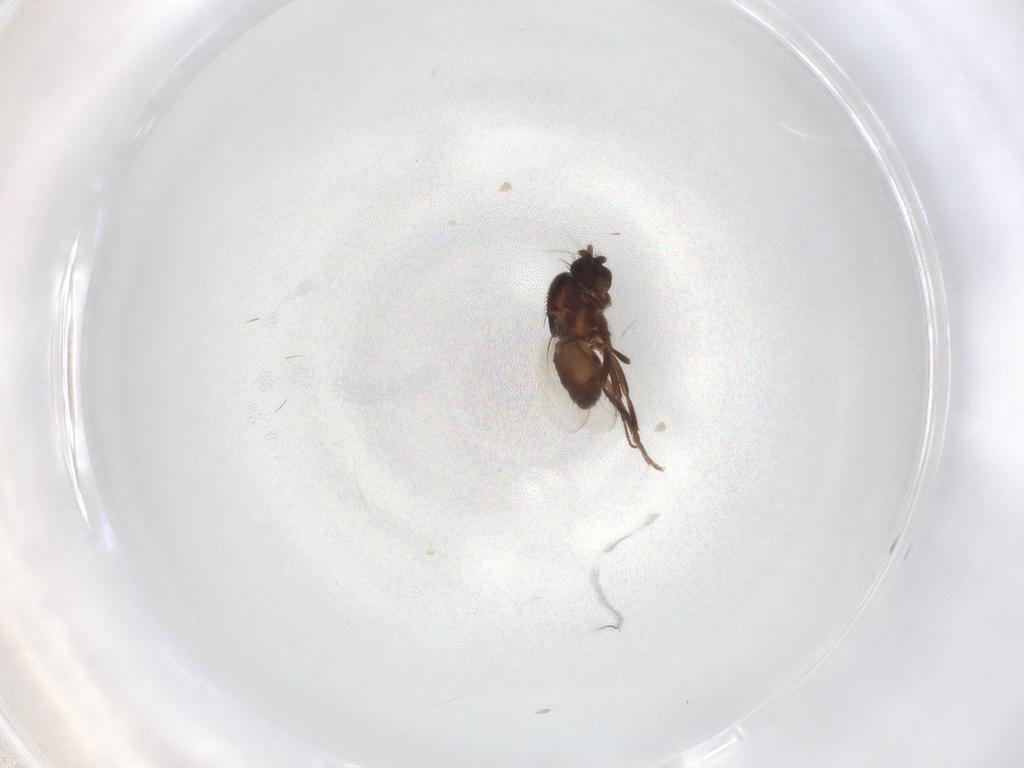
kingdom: Animalia
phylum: Arthropoda
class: Insecta
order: Diptera
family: Sphaeroceridae
